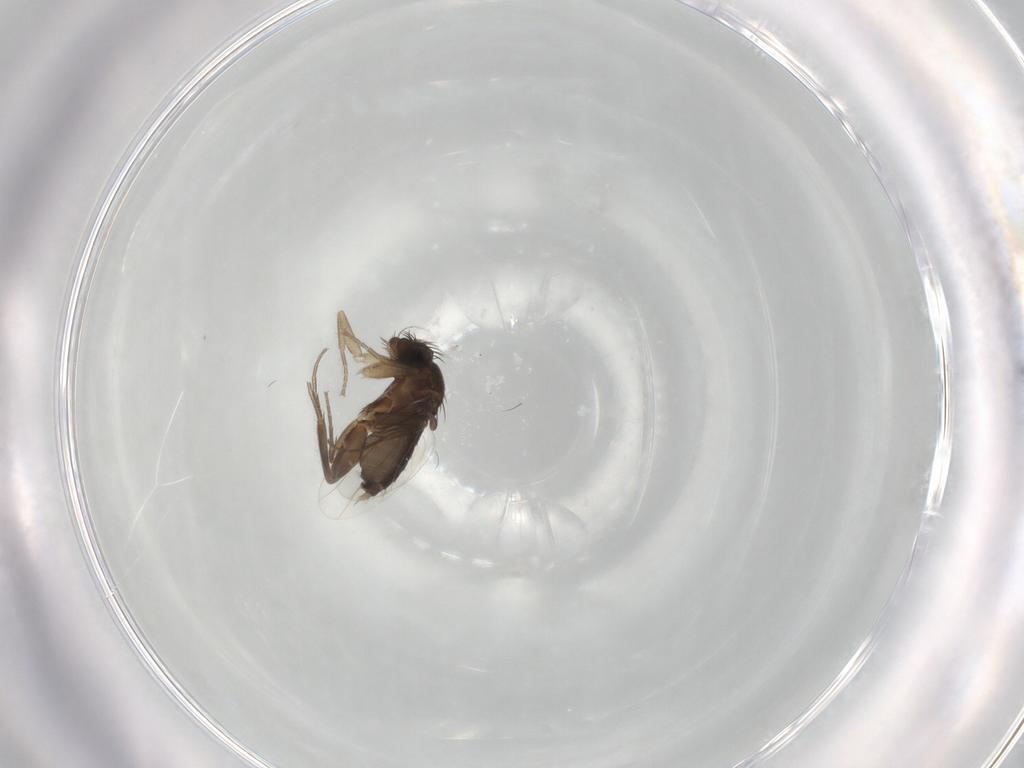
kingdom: Animalia
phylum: Arthropoda
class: Insecta
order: Diptera
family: Phoridae
